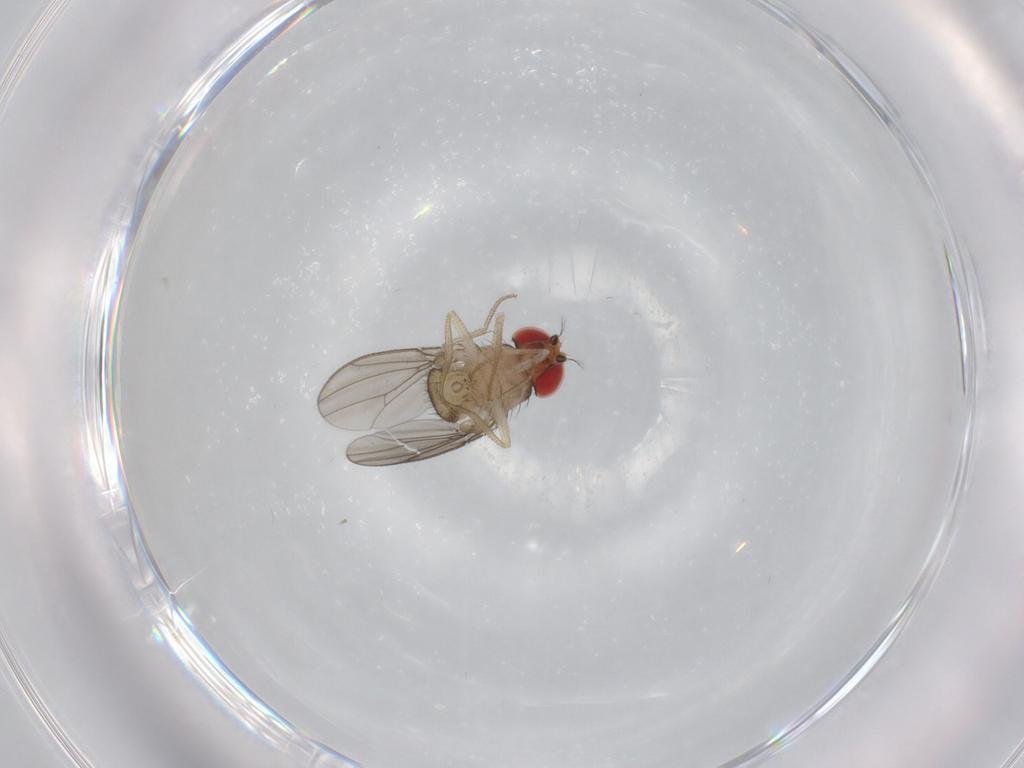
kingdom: Animalia
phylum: Arthropoda
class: Insecta
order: Diptera
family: Drosophilidae
